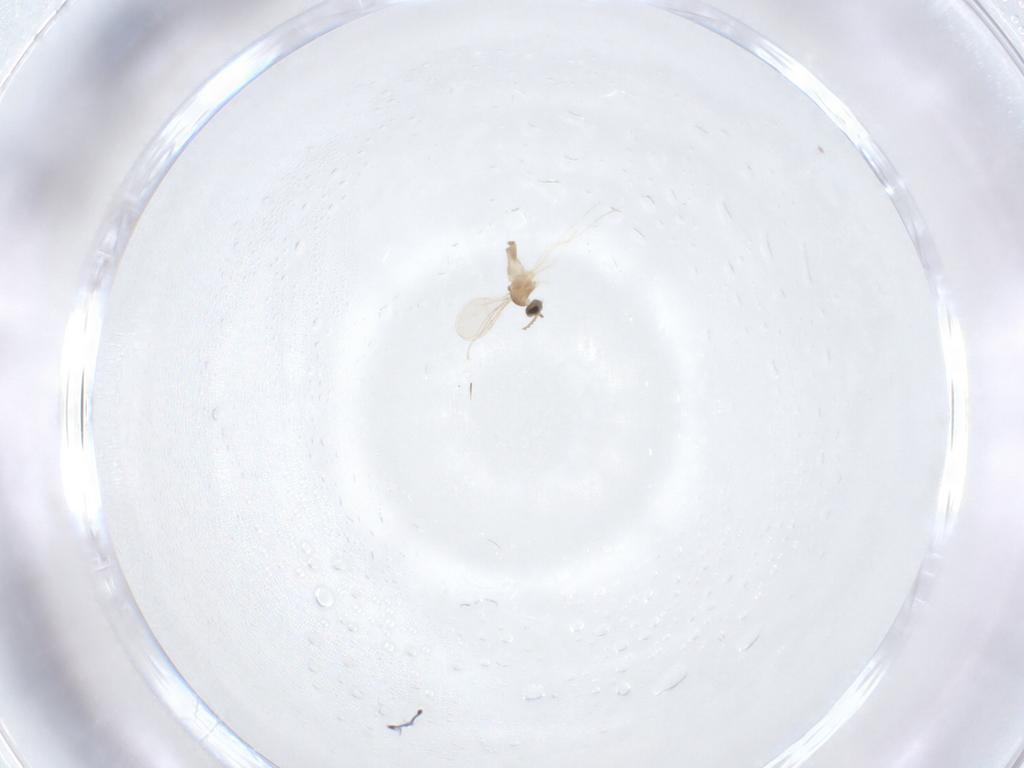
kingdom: Animalia
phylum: Arthropoda
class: Insecta
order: Diptera
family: Cecidomyiidae
